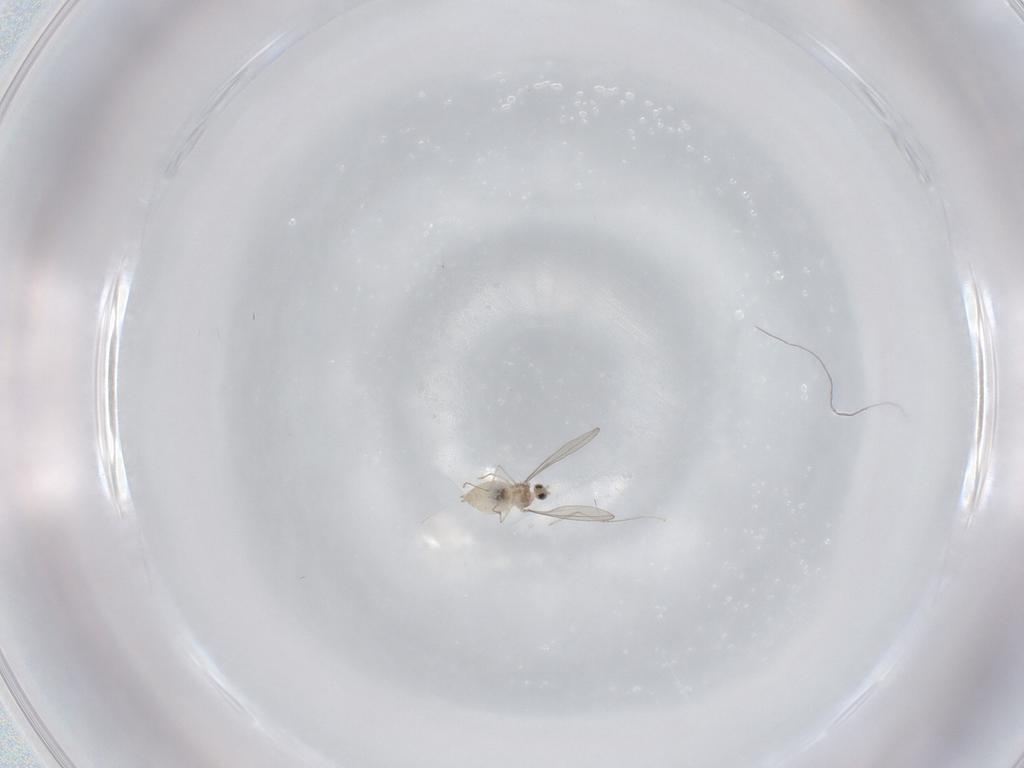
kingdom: Animalia
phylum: Arthropoda
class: Insecta
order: Diptera
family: Cecidomyiidae
